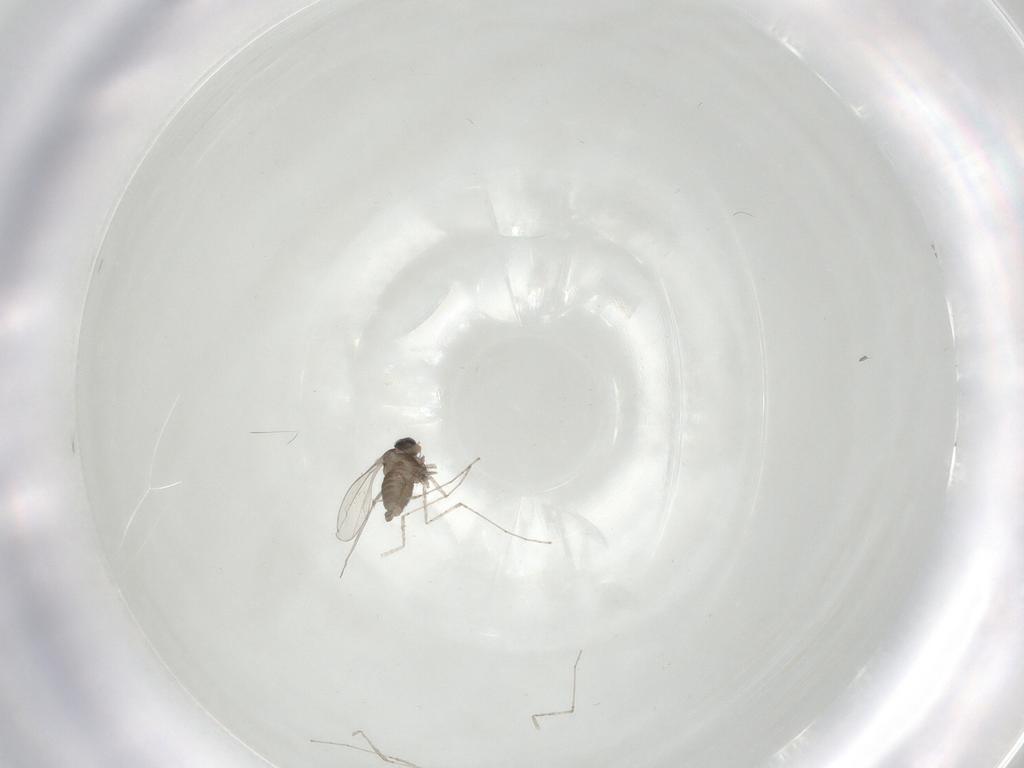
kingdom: Animalia
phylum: Arthropoda
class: Insecta
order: Diptera
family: Cecidomyiidae
